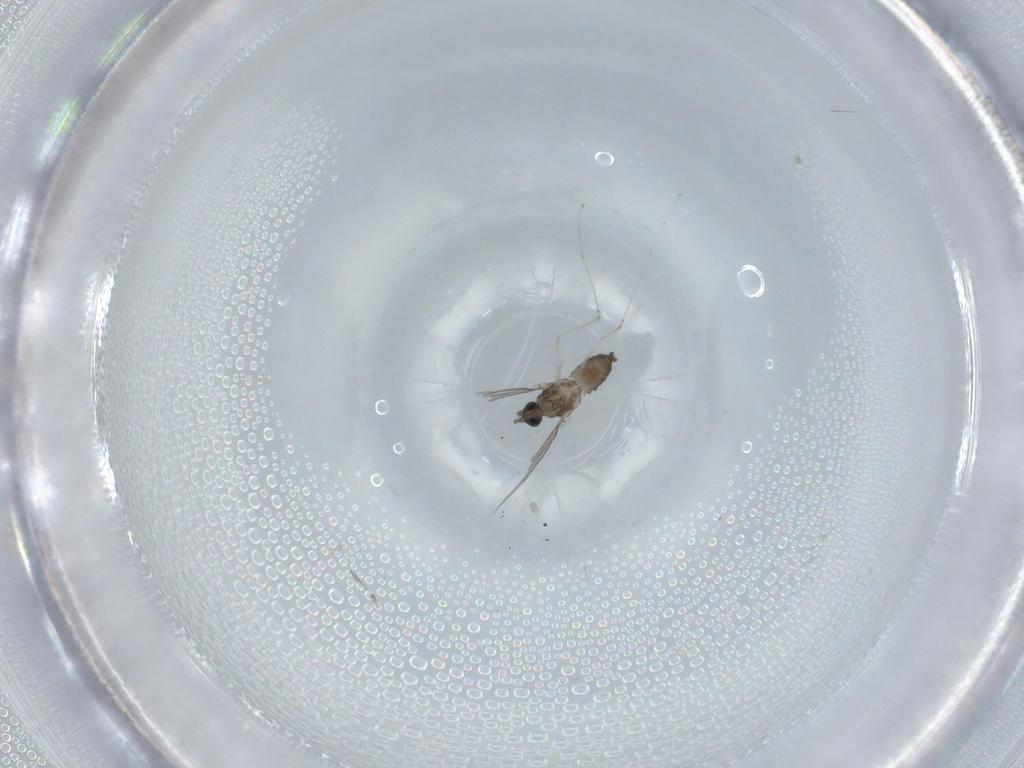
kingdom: Animalia
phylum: Arthropoda
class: Insecta
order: Diptera
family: Cecidomyiidae
